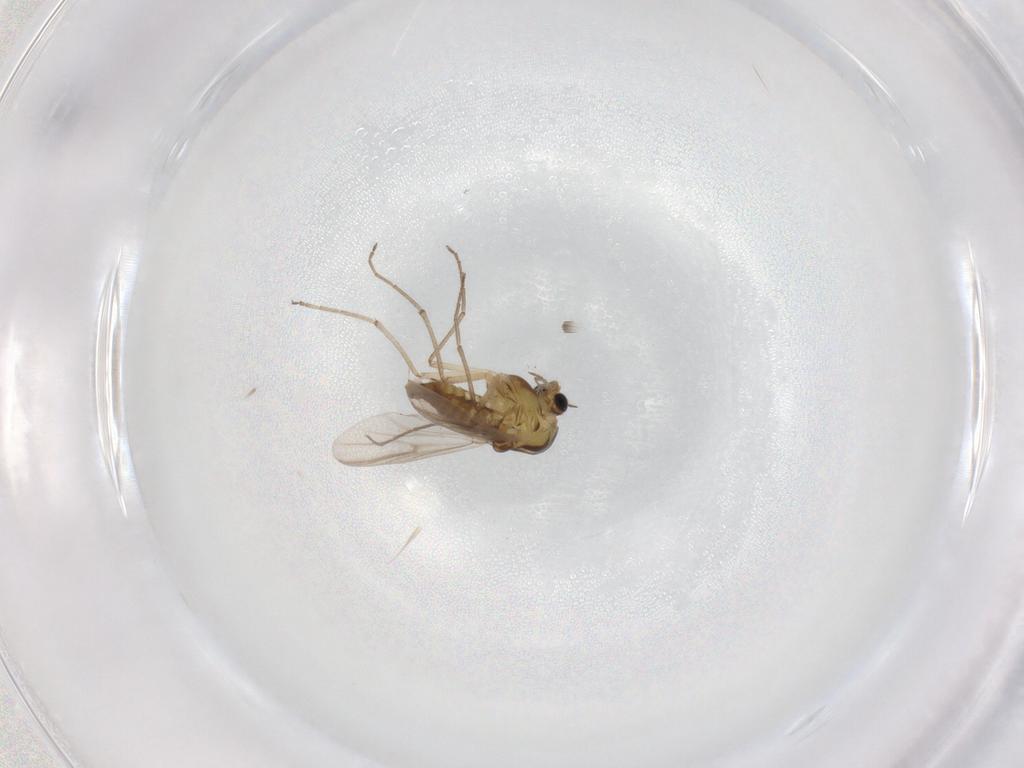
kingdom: Animalia
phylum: Arthropoda
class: Insecta
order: Diptera
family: Chironomidae
